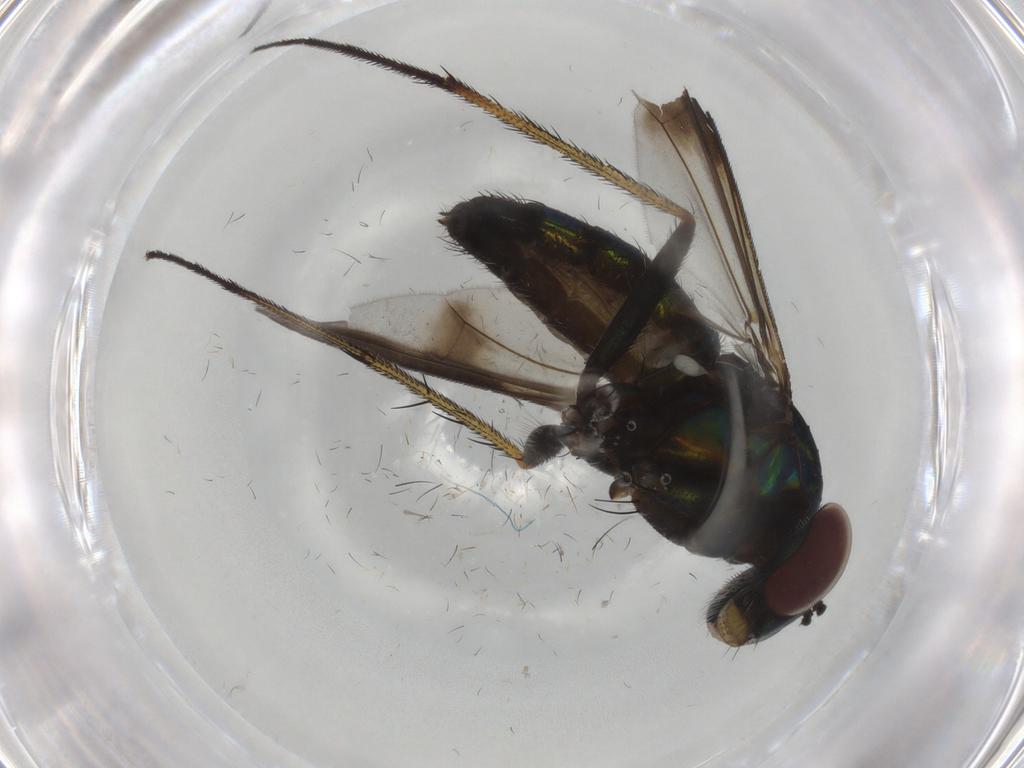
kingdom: Animalia
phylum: Arthropoda
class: Insecta
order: Diptera
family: Dolichopodidae
